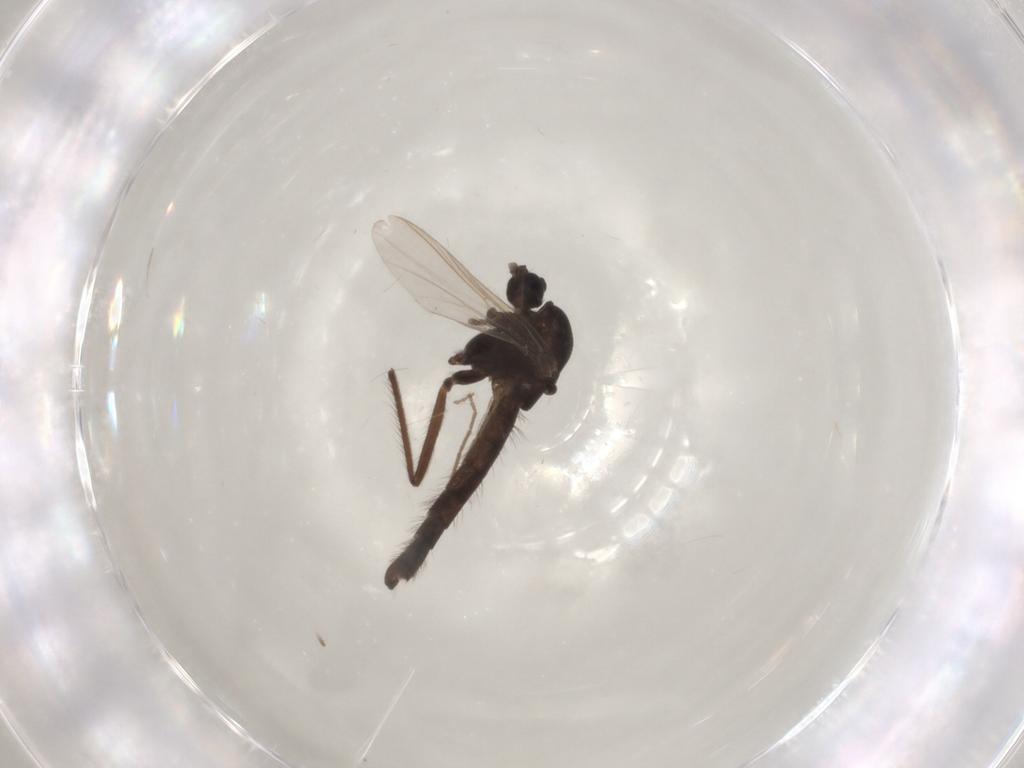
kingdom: Animalia
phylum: Arthropoda
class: Insecta
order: Diptera
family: Chironomidae
